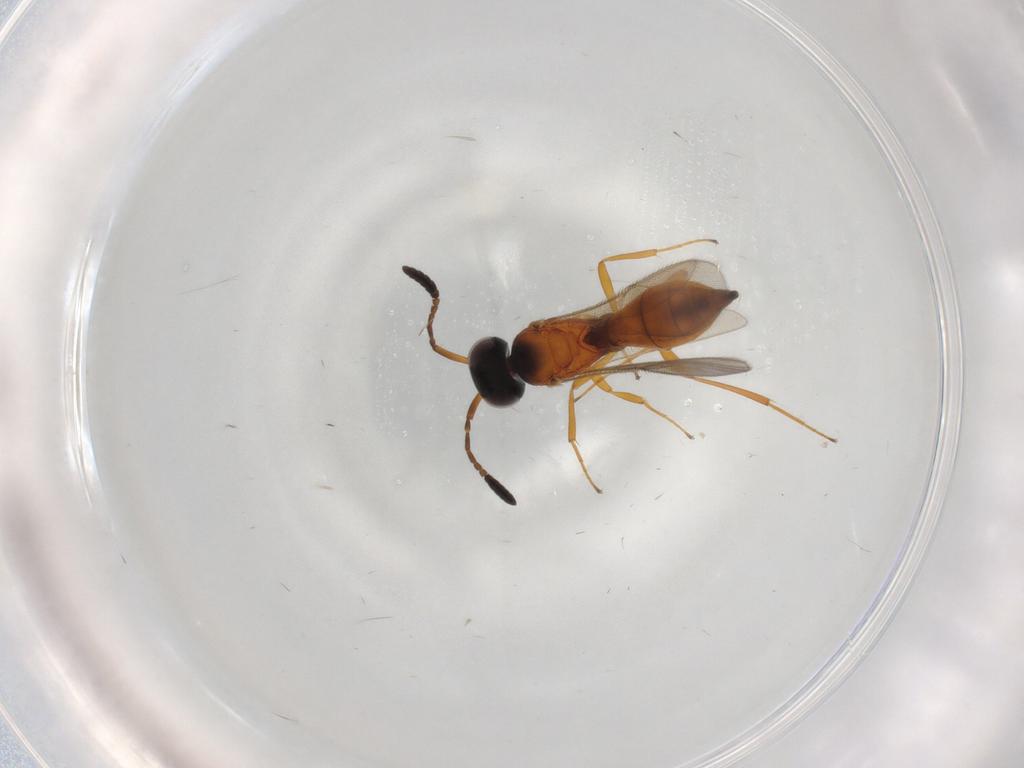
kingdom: Animalia
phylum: Arthropoda
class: Insecta
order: Hymenoptera
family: Scelionidae
